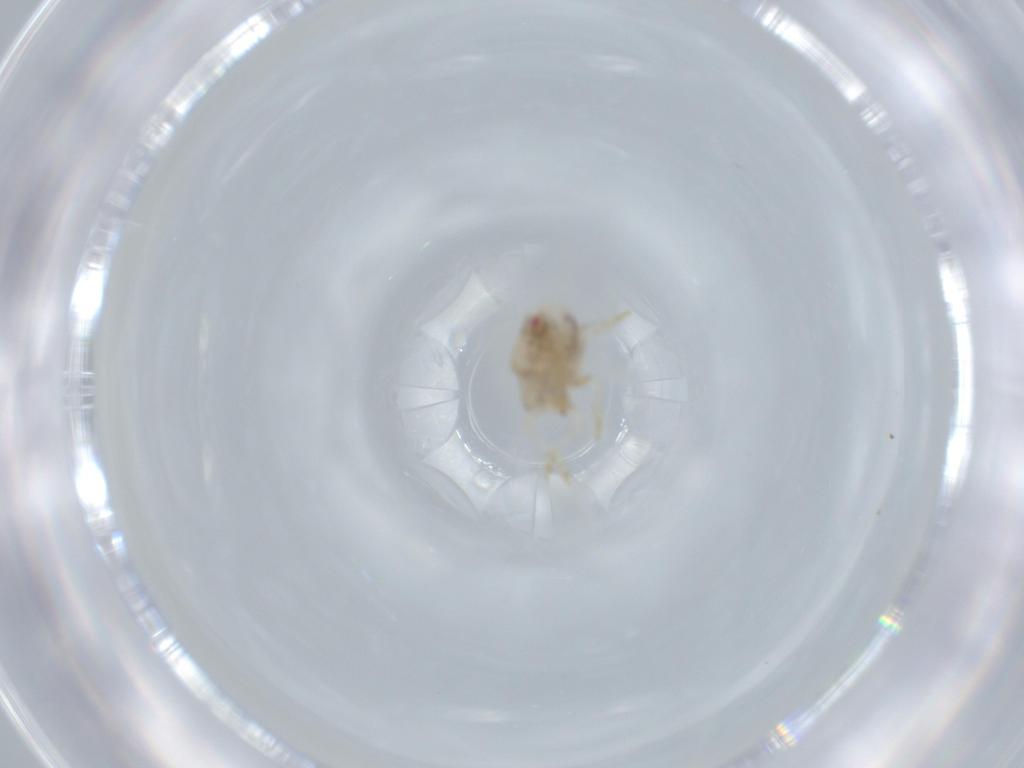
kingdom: Animalia
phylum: Arthropoda
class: Insecta
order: Hemiptera
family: Acanaloniidae
